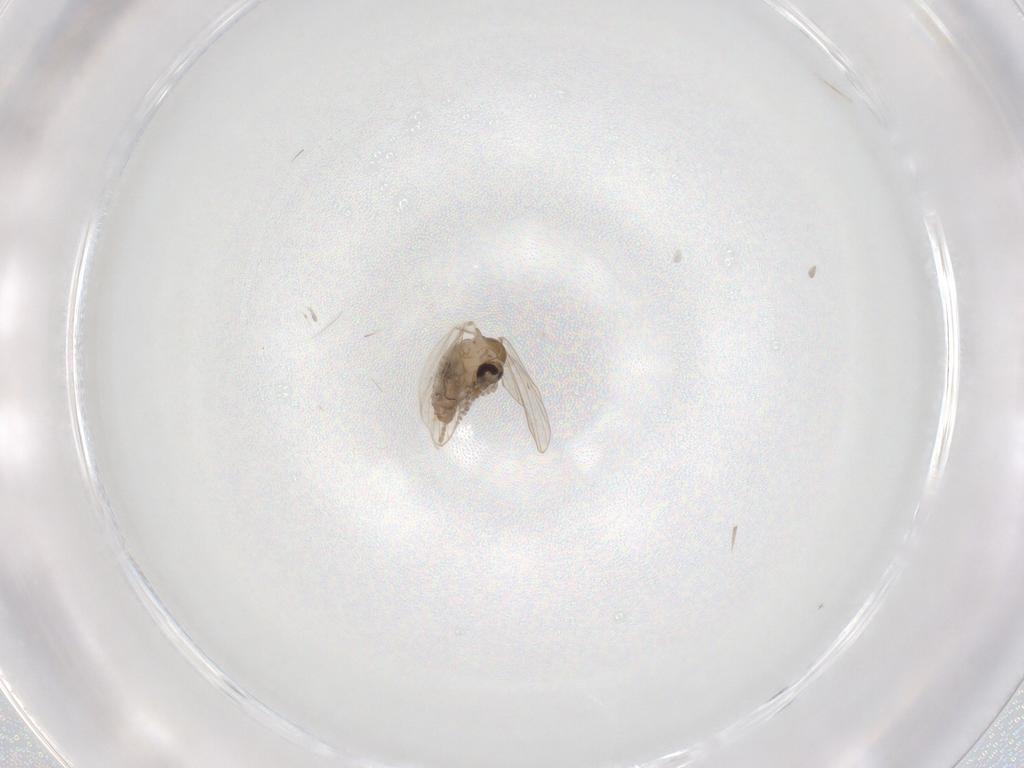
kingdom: Animalia
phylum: Arthropoda
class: Insecta
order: Diptera
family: Psychodidae
